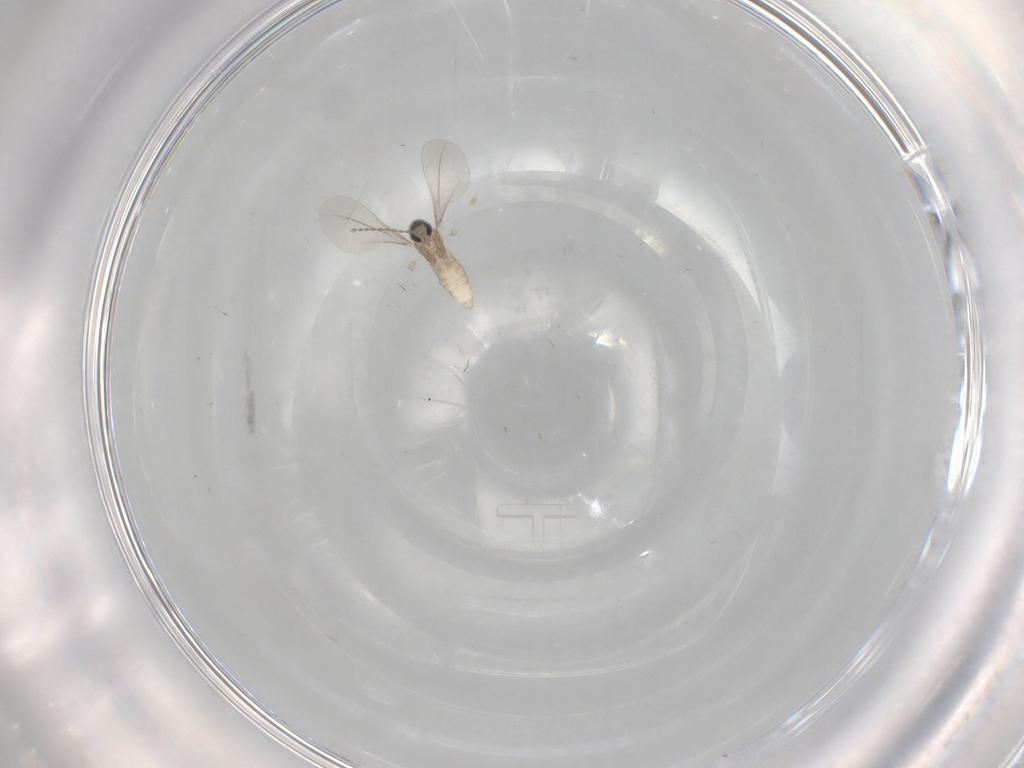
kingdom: Animalia
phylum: Arthropoda
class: Insecta
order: Diptera
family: Cecidomyiidae
